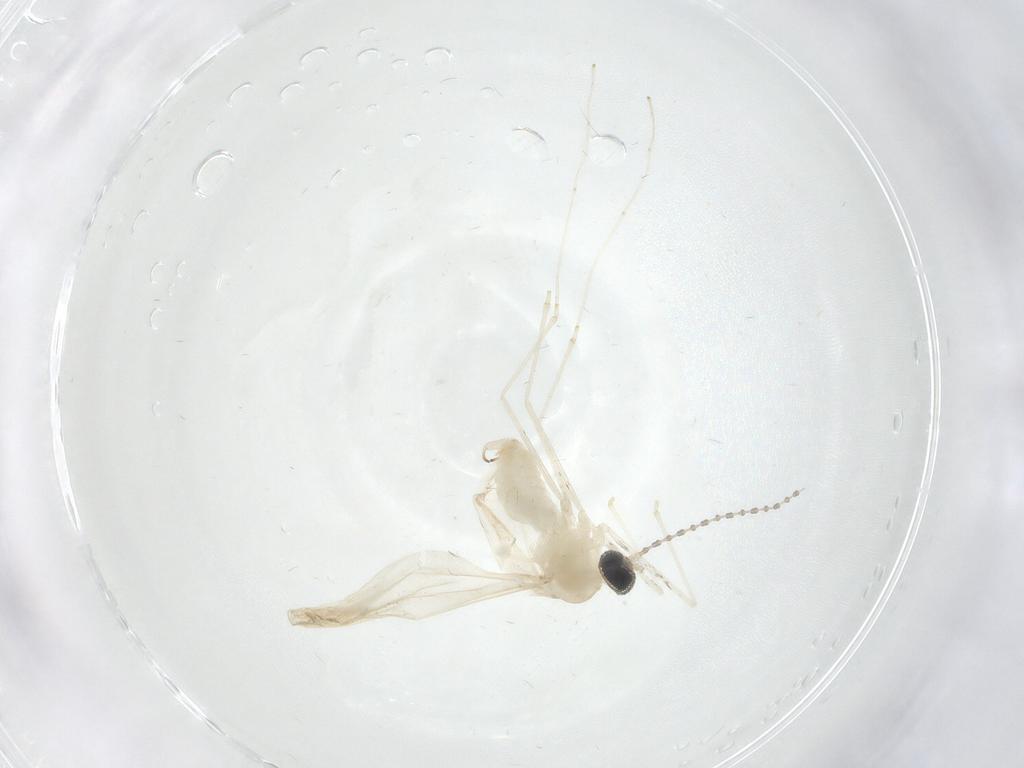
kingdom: Animalia
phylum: Arthropoda
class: Insecta
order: Diptera
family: Cecidomyiidae
